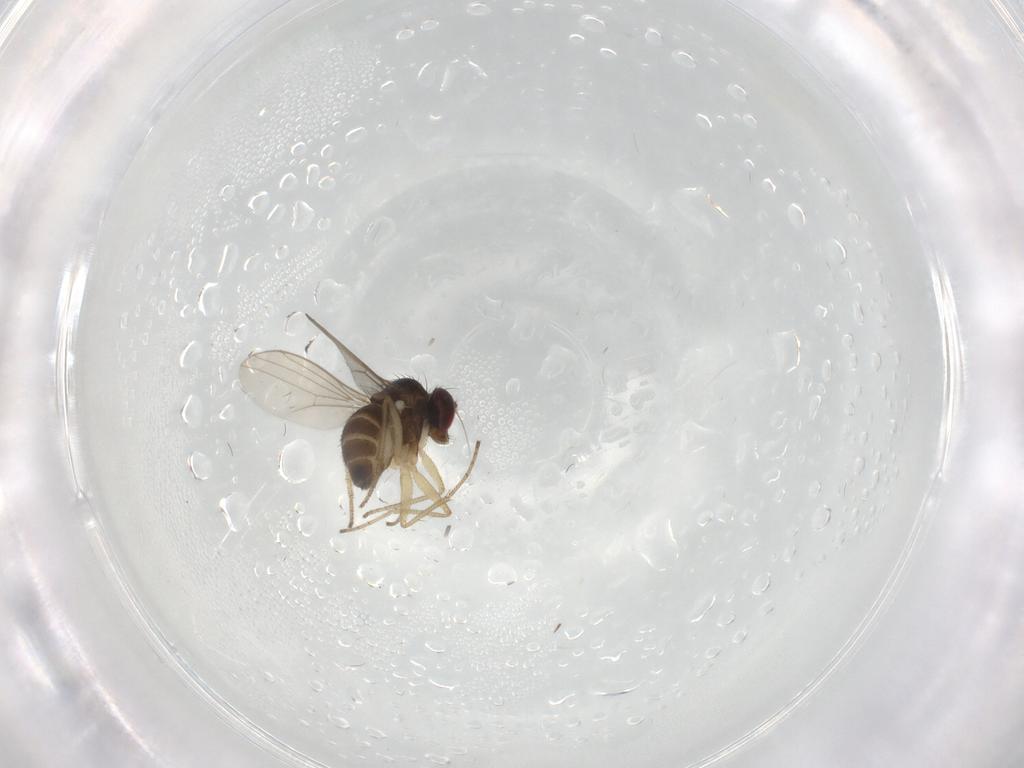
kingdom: Animalia
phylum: Arthropoda
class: Insecta
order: Diptera
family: Dolichopodidae
